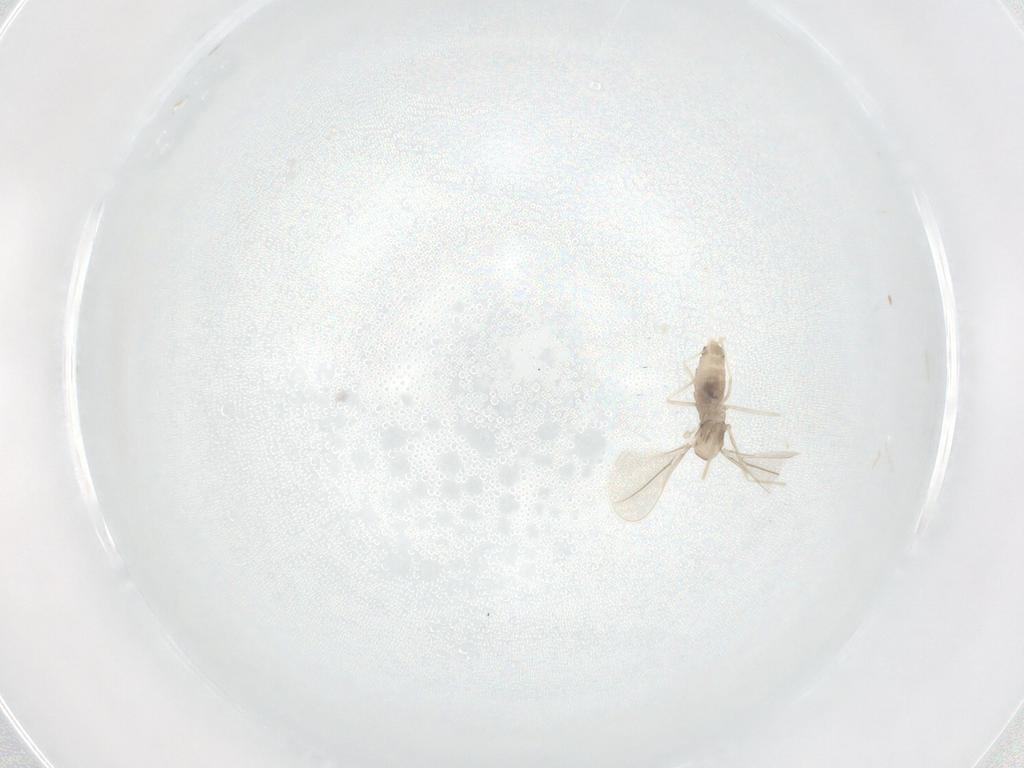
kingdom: Animalia
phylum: Arthropoda
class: Insecta
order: Diptera
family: Cecidomyiidae
